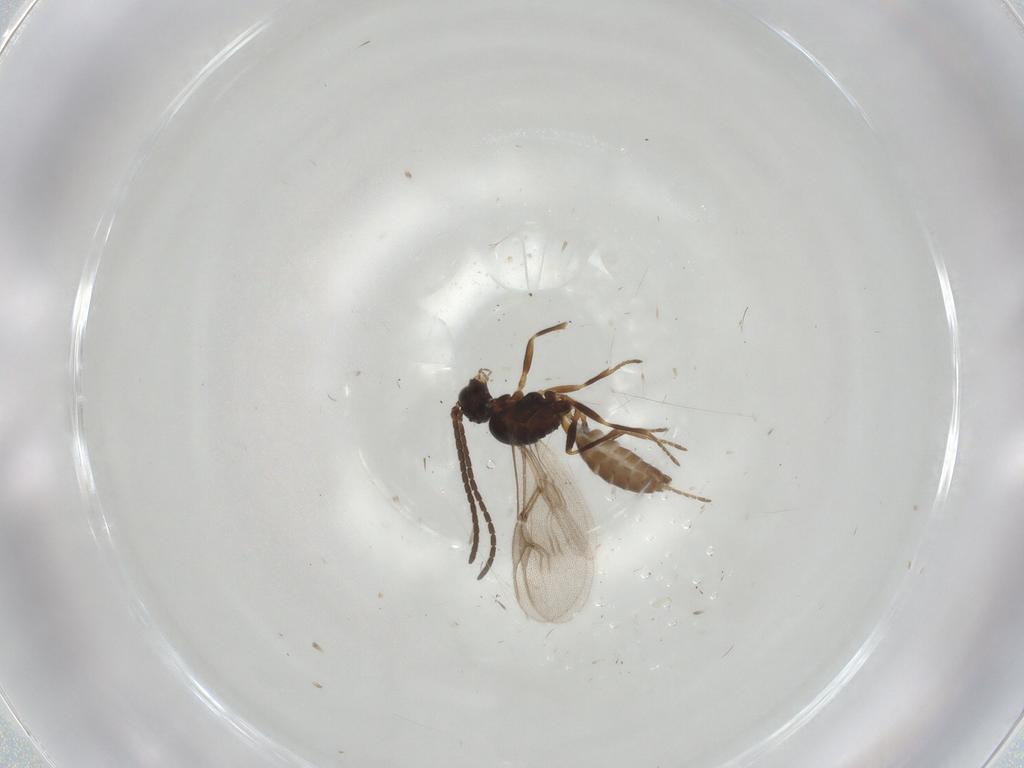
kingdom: Animalia
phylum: Arthropoda
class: Insecta
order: Hymenoptera
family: Braconidae
